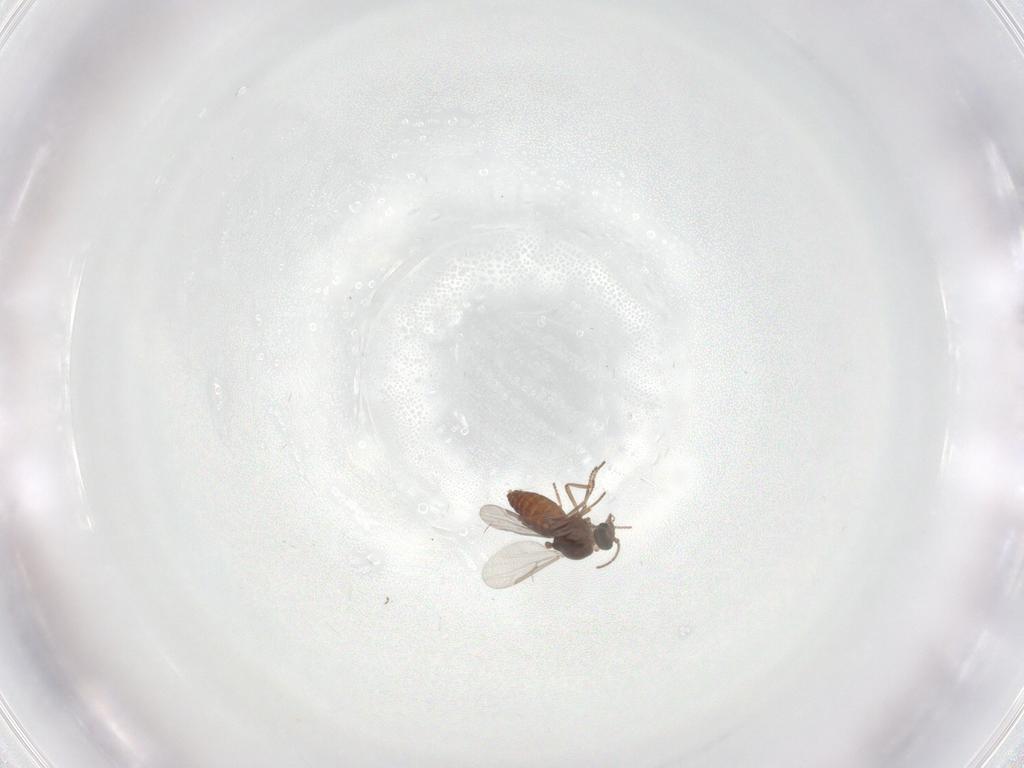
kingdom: Animalia
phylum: Arthropoda
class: Insecta
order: Diptera
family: Ceratopogonidae
